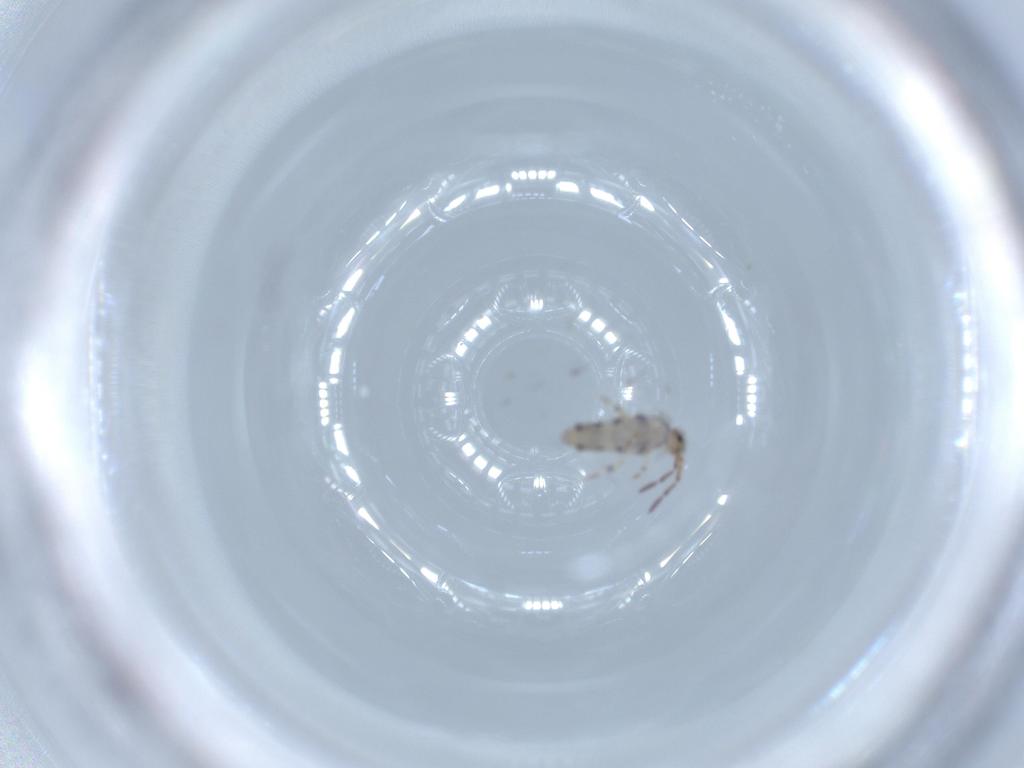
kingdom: Animalia
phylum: Arthropoda
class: Collembola
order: Entomobryomorpha
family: Entomobryidae
